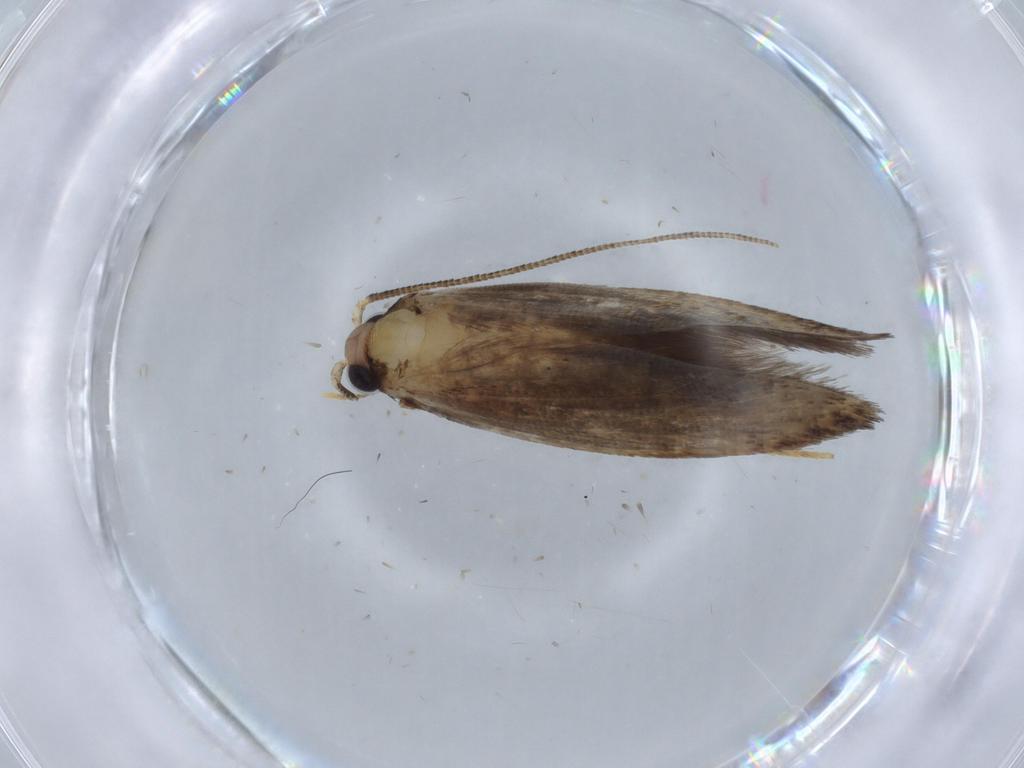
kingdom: Animalia
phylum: Arthropoda
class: Insecta
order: Lepidoptera
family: Tineidae
